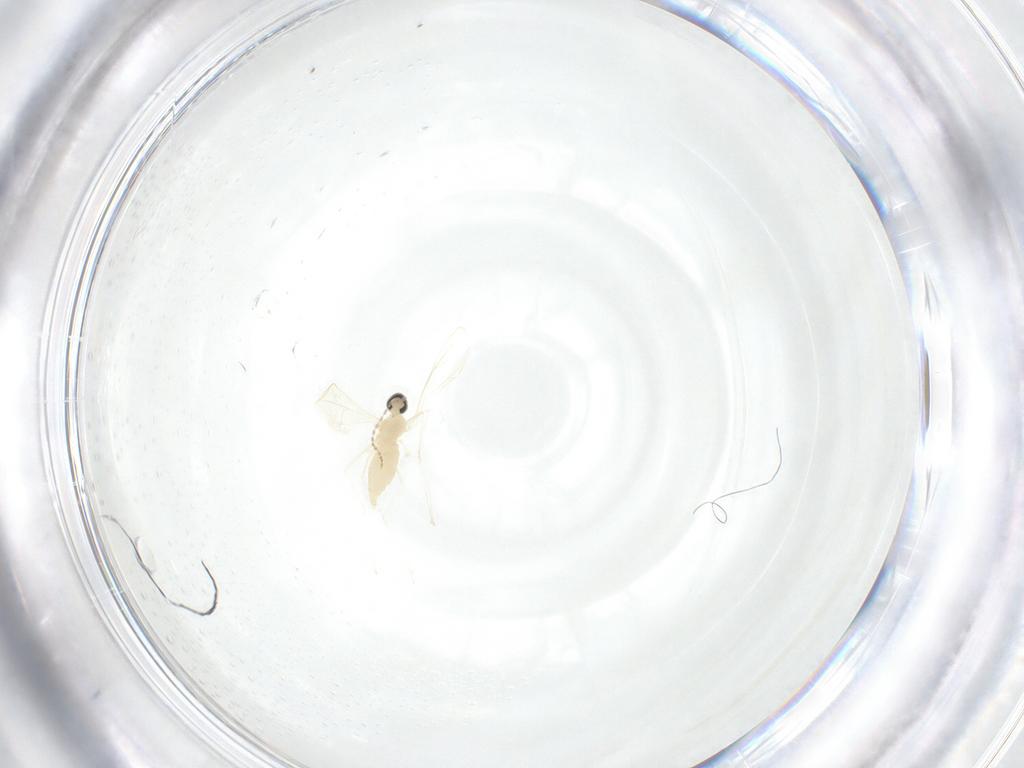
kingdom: Animalia
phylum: Arthropoda
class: Insecta
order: Diptera
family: Cecidomyiidae
